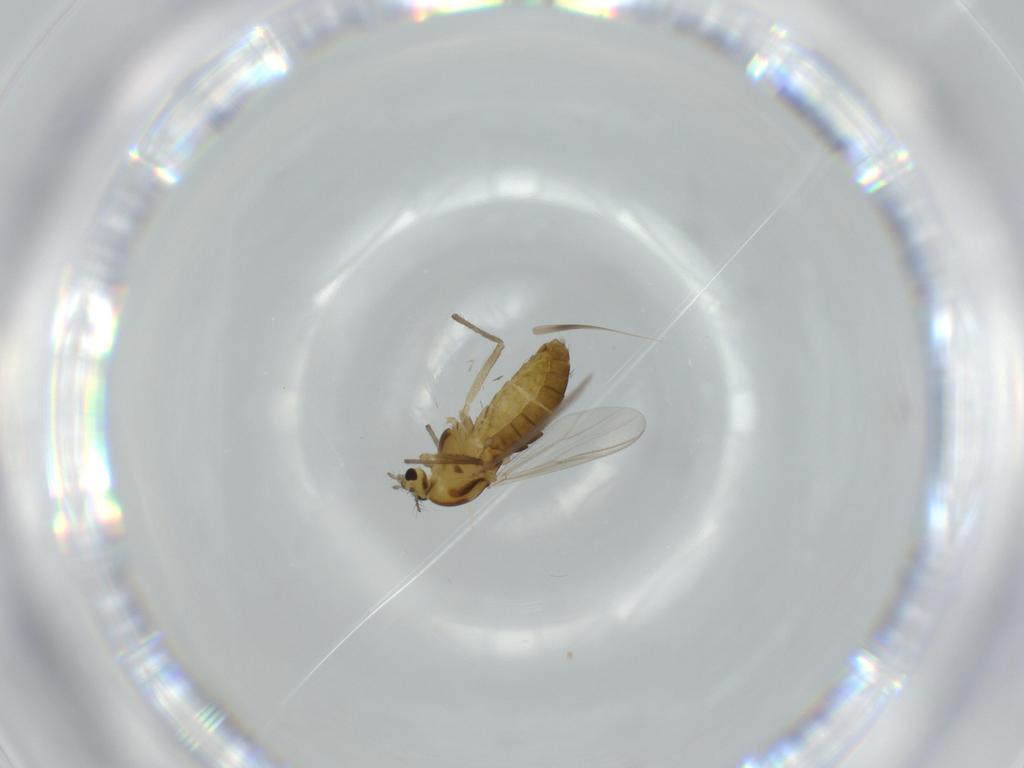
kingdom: Animalia
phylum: Arthropoda
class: Insecta
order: Diptera
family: Chironomidae
